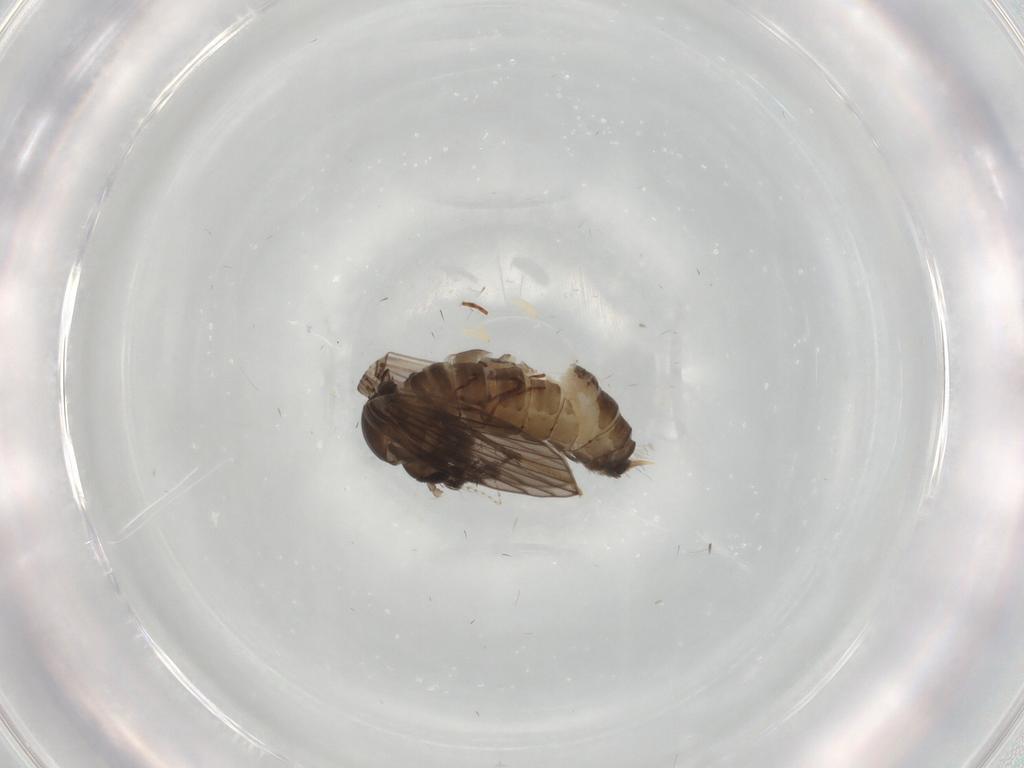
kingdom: Animalia
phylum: Arthropoda
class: Insecta
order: Diptera
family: Psychodidae
